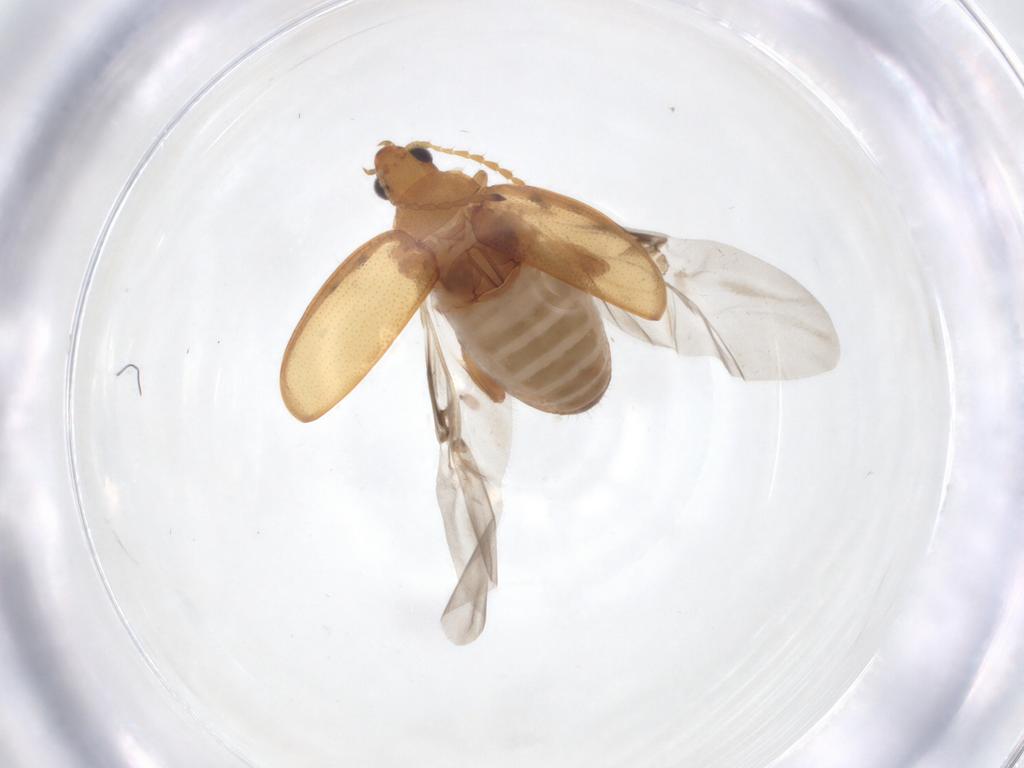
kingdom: Animalia
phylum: Arthropoda
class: Insecta
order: Coleoptera
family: Chrysomelidae
